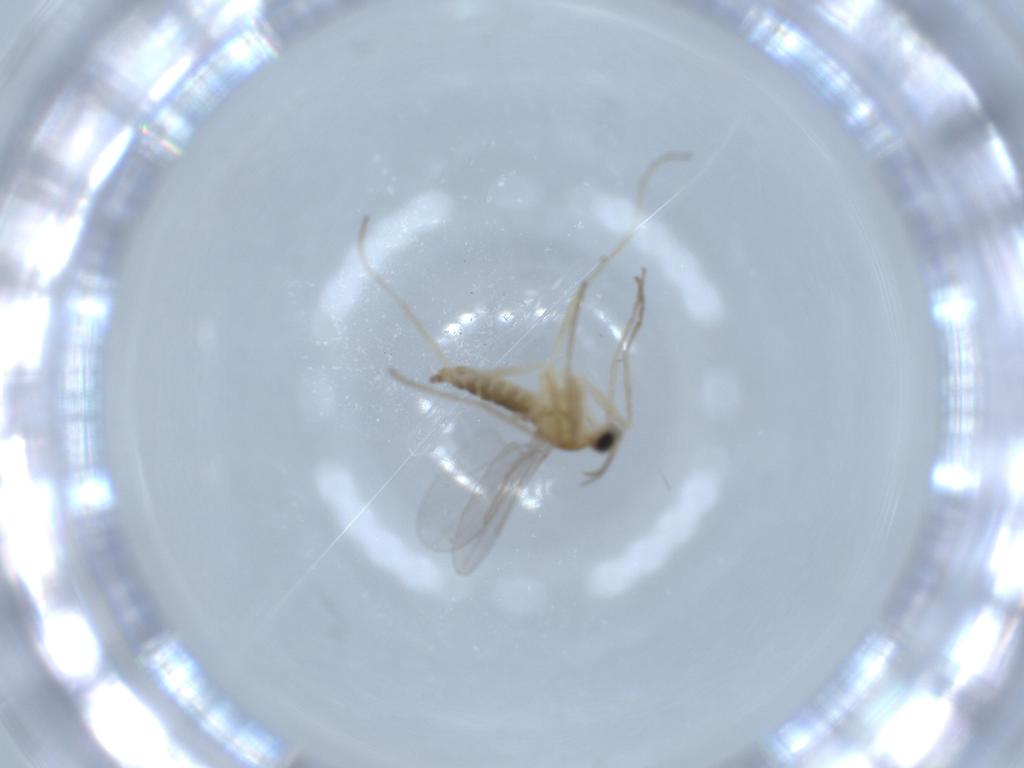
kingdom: Animalia
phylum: Arthropoda
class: Insecta
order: Diptera
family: Cecidomyiidae
